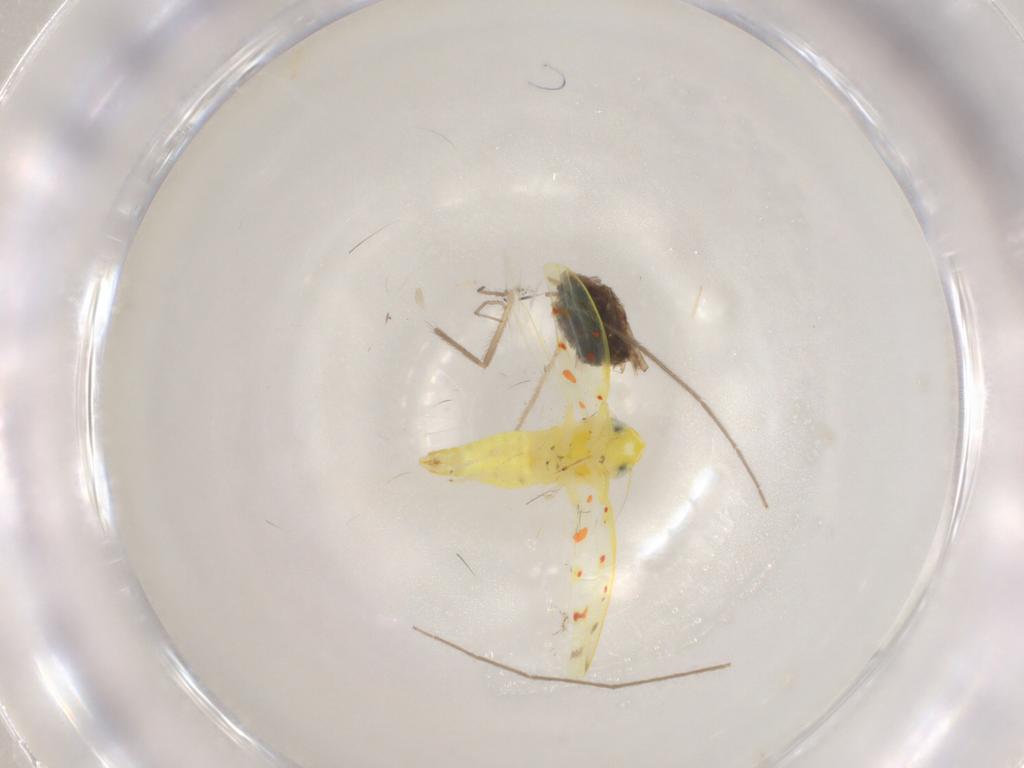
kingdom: Animalia
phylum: Arthropoda
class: Insecta
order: Diptera
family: Chironomidae
